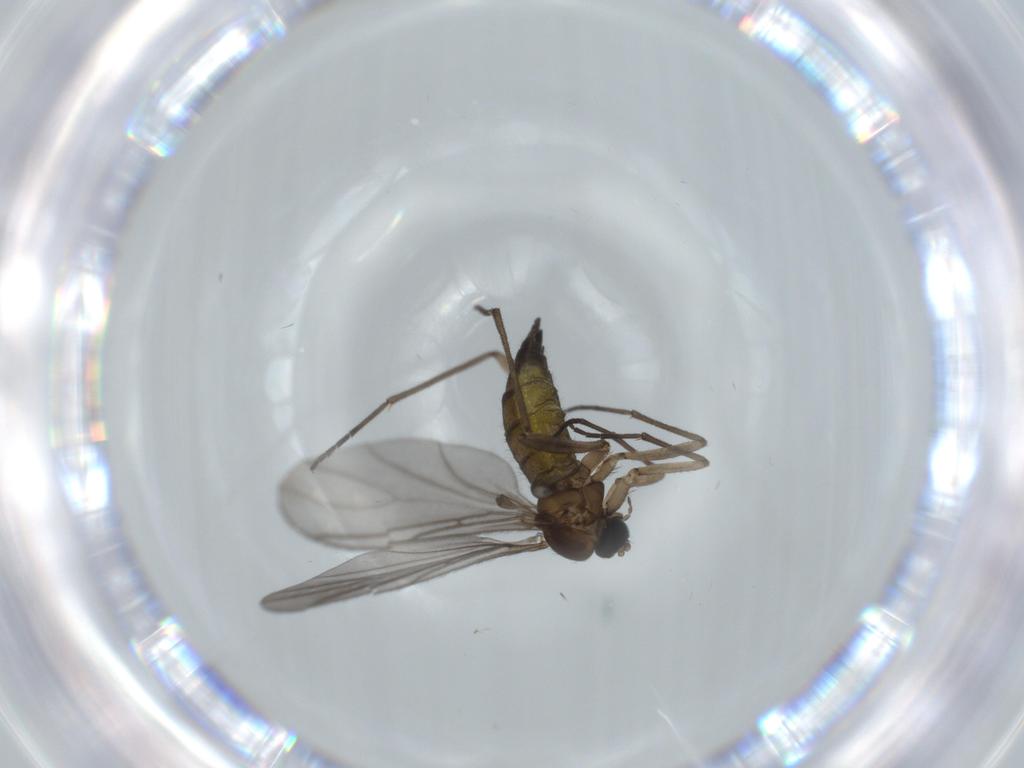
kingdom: Animalia
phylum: Arthropoda
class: Insecta
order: Diptera
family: Sciaridae
